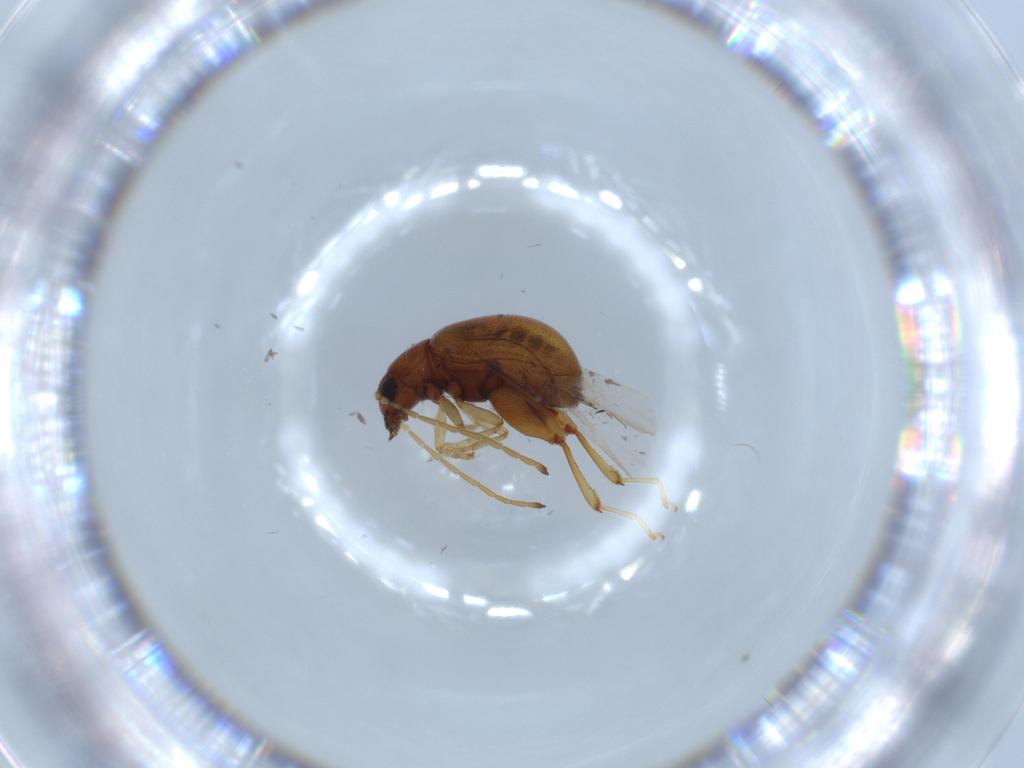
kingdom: Animalia
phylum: Arthropoda
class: Insecta
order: Coleoptera
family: Chrysomelidae
